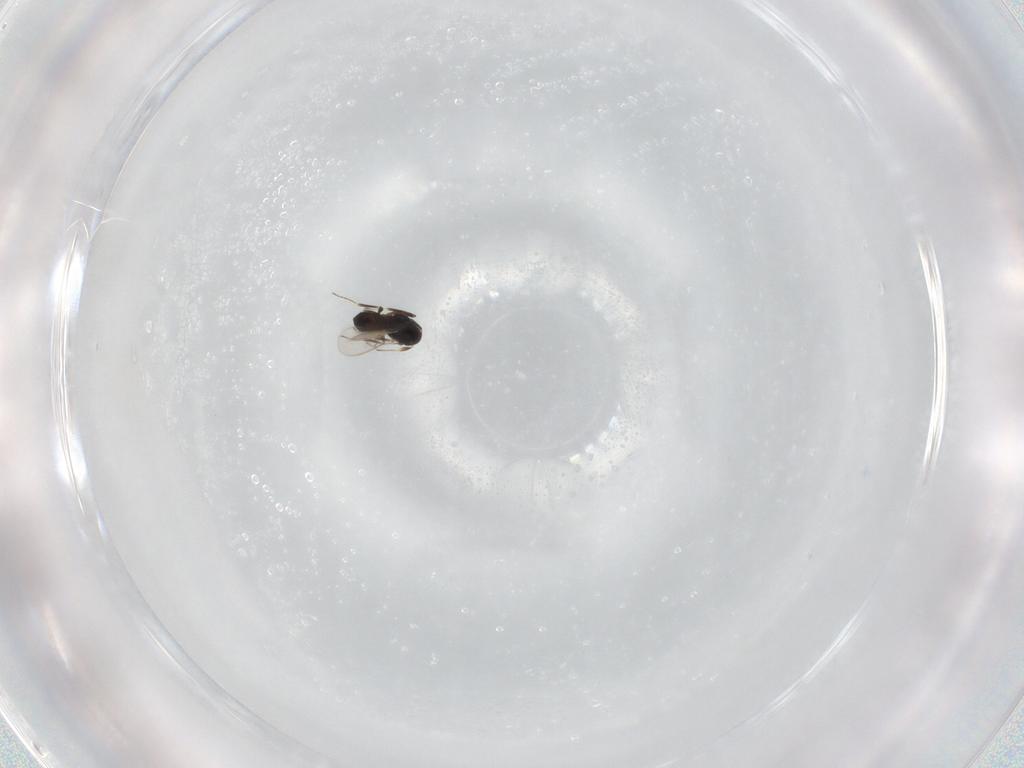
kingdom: Animalia
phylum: Arthropoda
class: Insecta
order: Hymenoptera
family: Scelionidae
